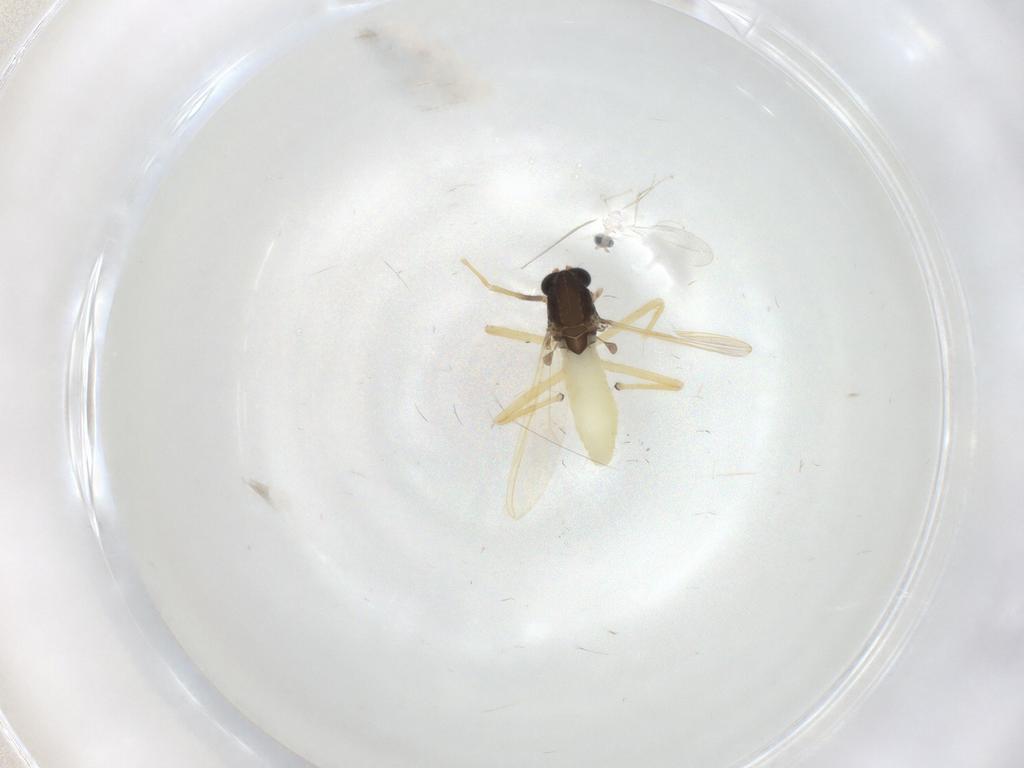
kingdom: Animalia
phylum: Arthropoda
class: Insecta
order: Diptera
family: Chironomidae
